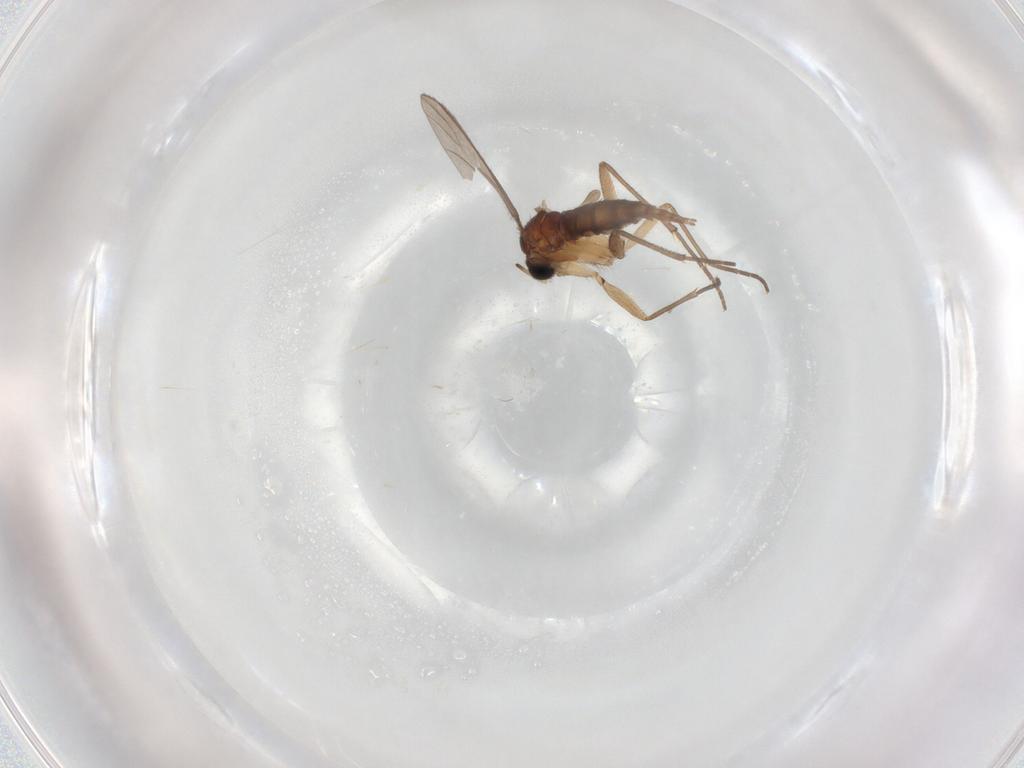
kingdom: Animalia
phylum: Arthropoda
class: Insecta
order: Diptera
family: Sciaridae
